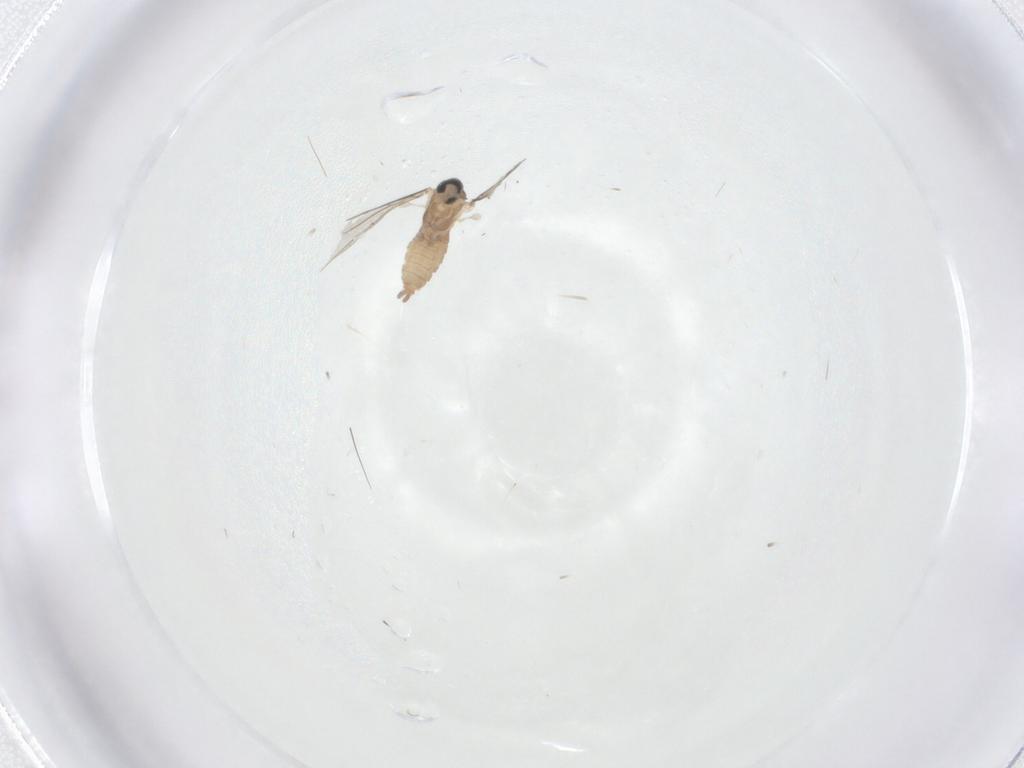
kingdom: Animalia
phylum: Arthropoda
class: Insecta
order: Diptera
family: Cecidomyiidae
